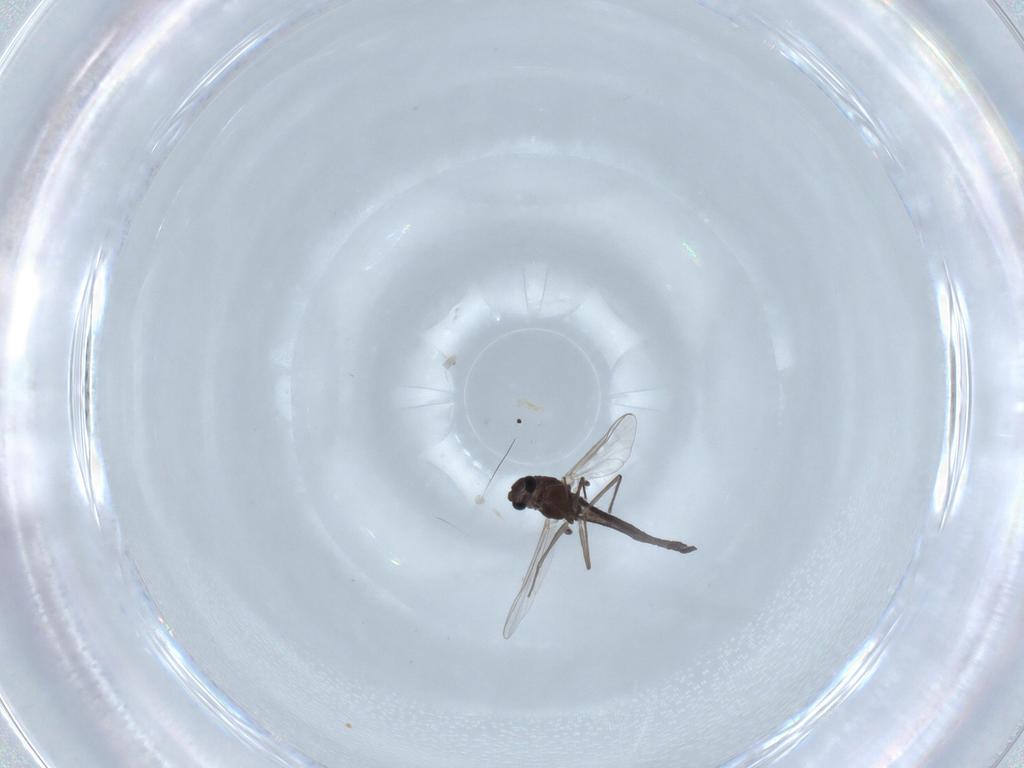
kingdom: Animalia
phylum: Arthropoda
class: Insecta
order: Diptera
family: Chironomidae
